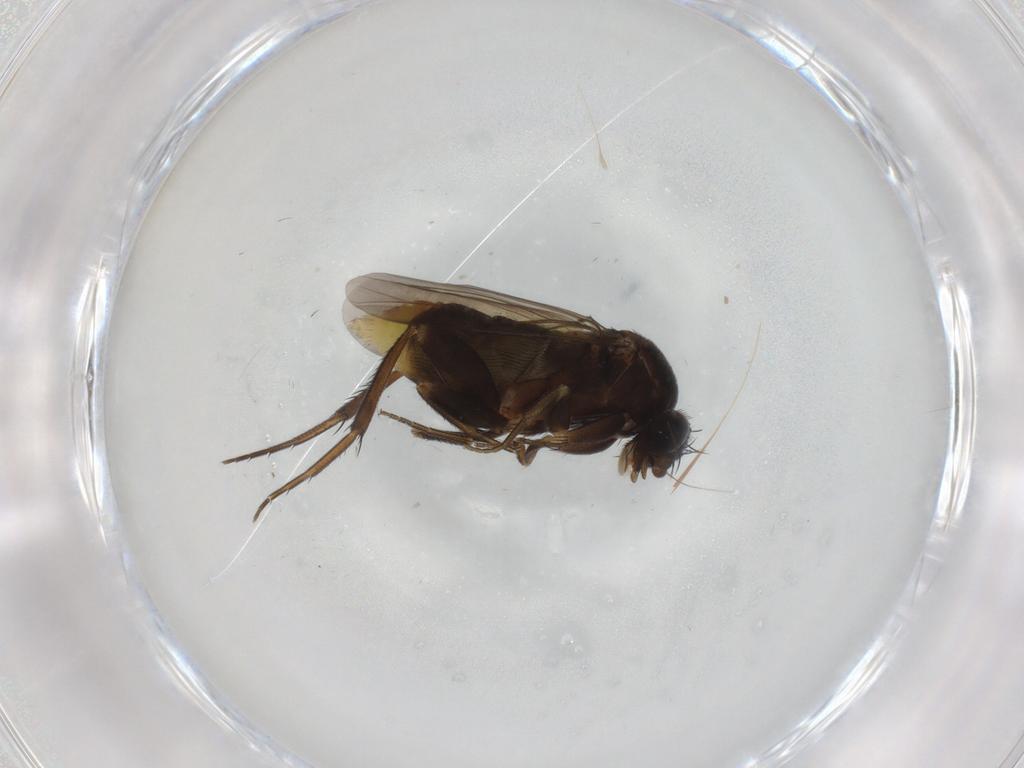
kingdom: Animalia
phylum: Arthropoda
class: Insecta
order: Diptera
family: Phoridae
